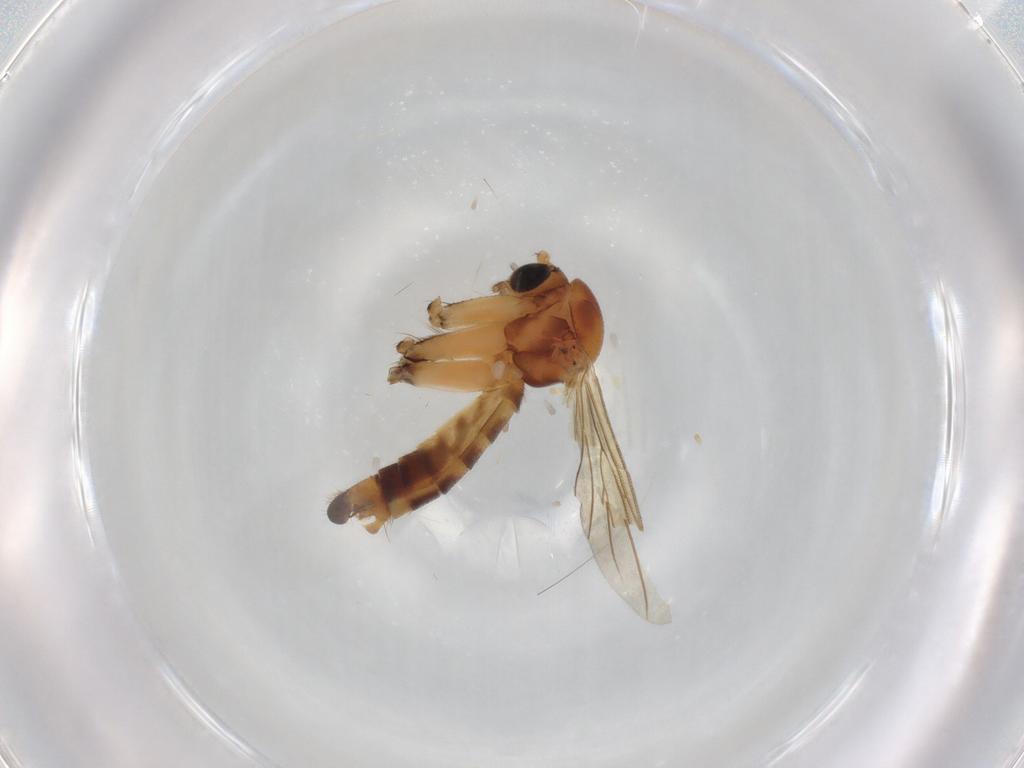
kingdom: Animalia
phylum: Arthropoda
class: Insecta
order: Diptera
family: Mycetophilidae
